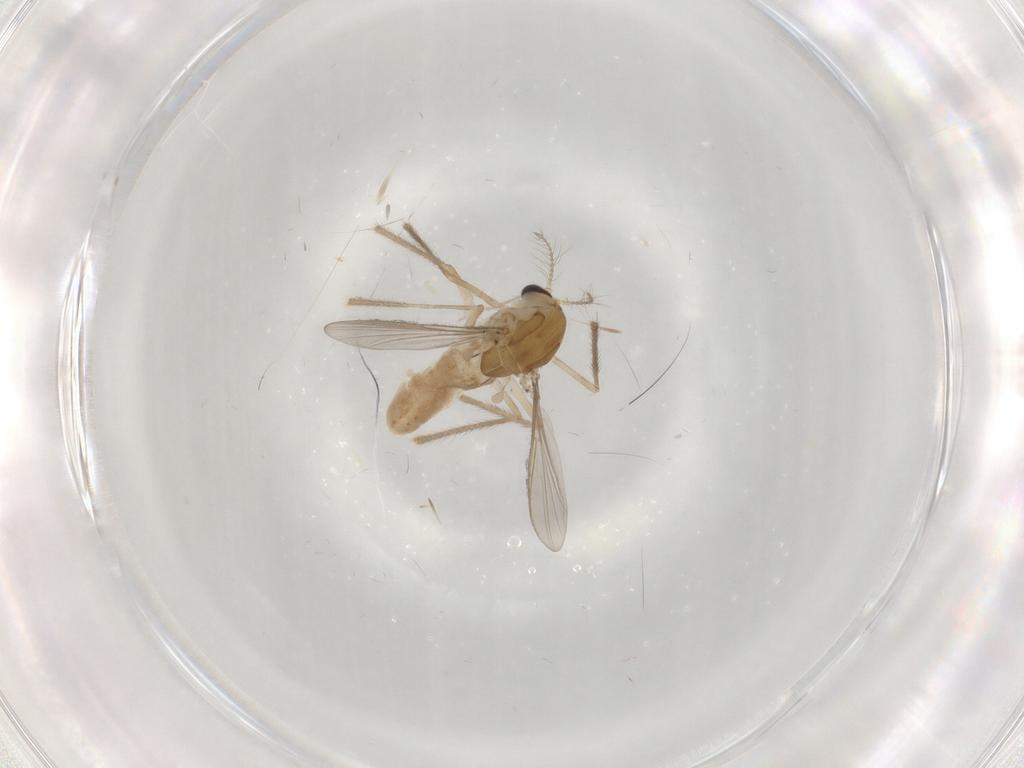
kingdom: Animalia
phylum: Arthropoda
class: Insecta
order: Diptera
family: Chironomidae
